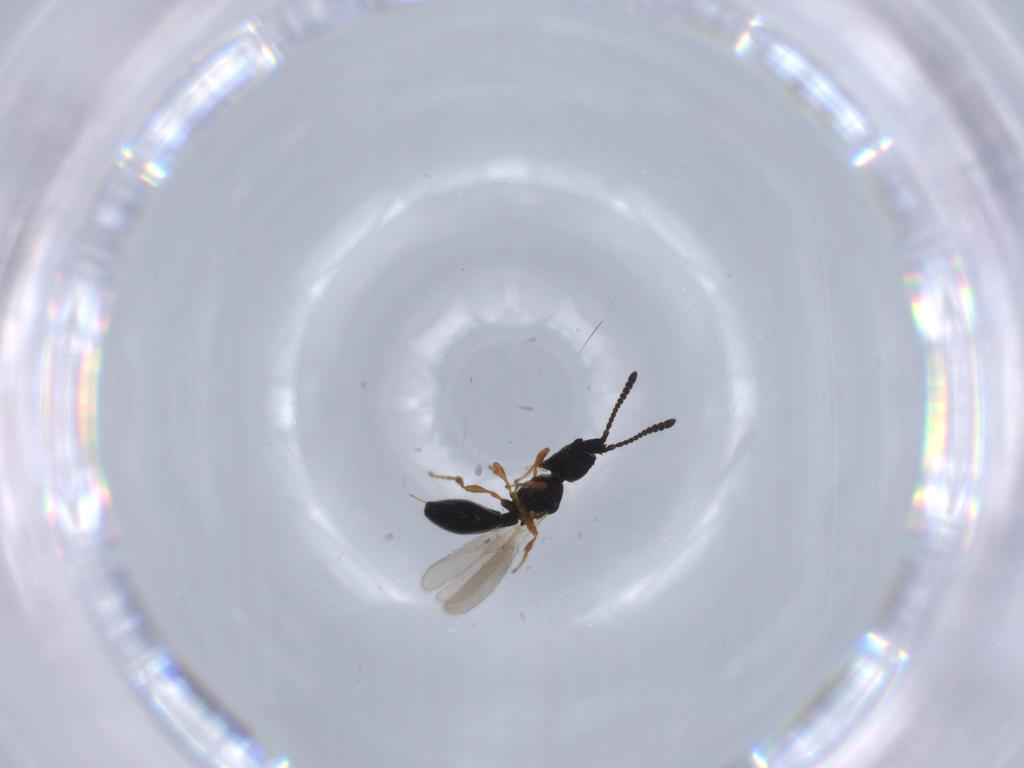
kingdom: Animalia
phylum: Arthropoda
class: Insecta
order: Hymenoptera
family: Diapriidae
